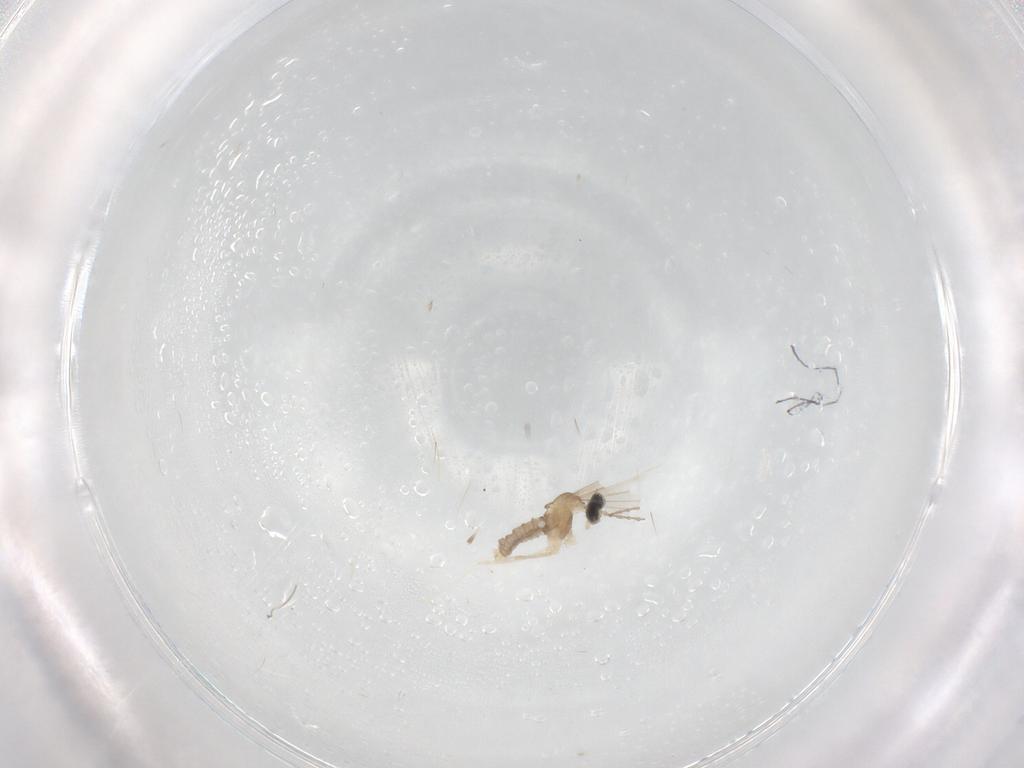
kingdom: Animalia
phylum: Arthropoda
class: Insecta
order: Diptera
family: Cecidomyiidae
